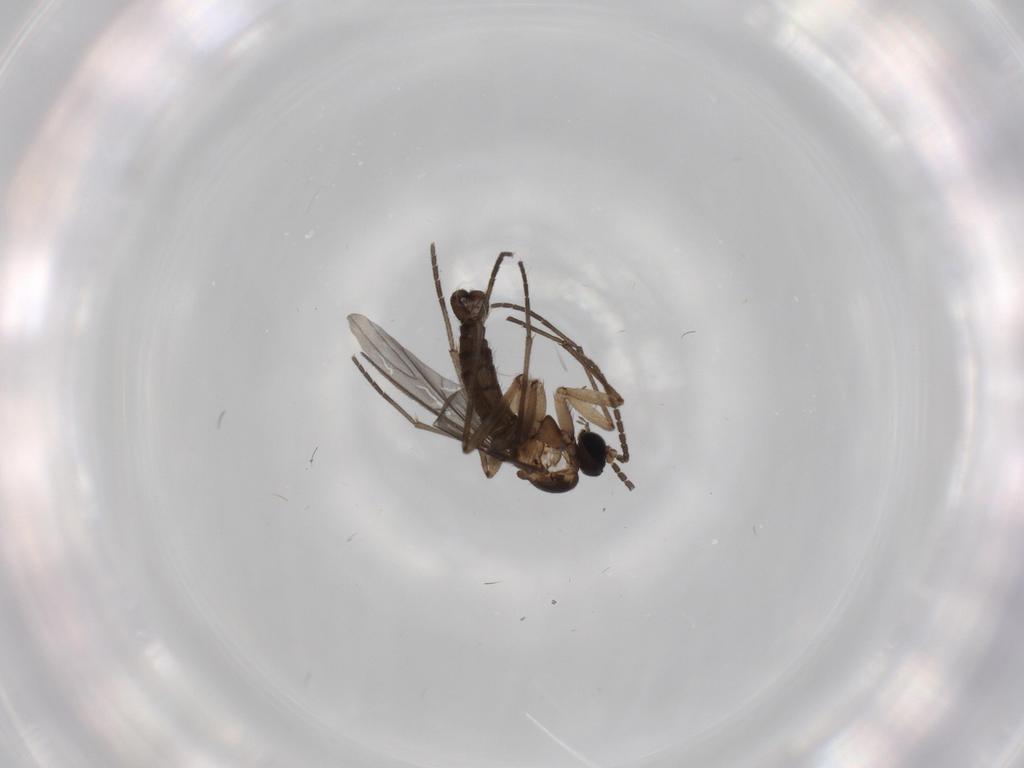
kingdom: Animalia
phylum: Arthropoda
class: Insecta
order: Diptera
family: Sciaridae
